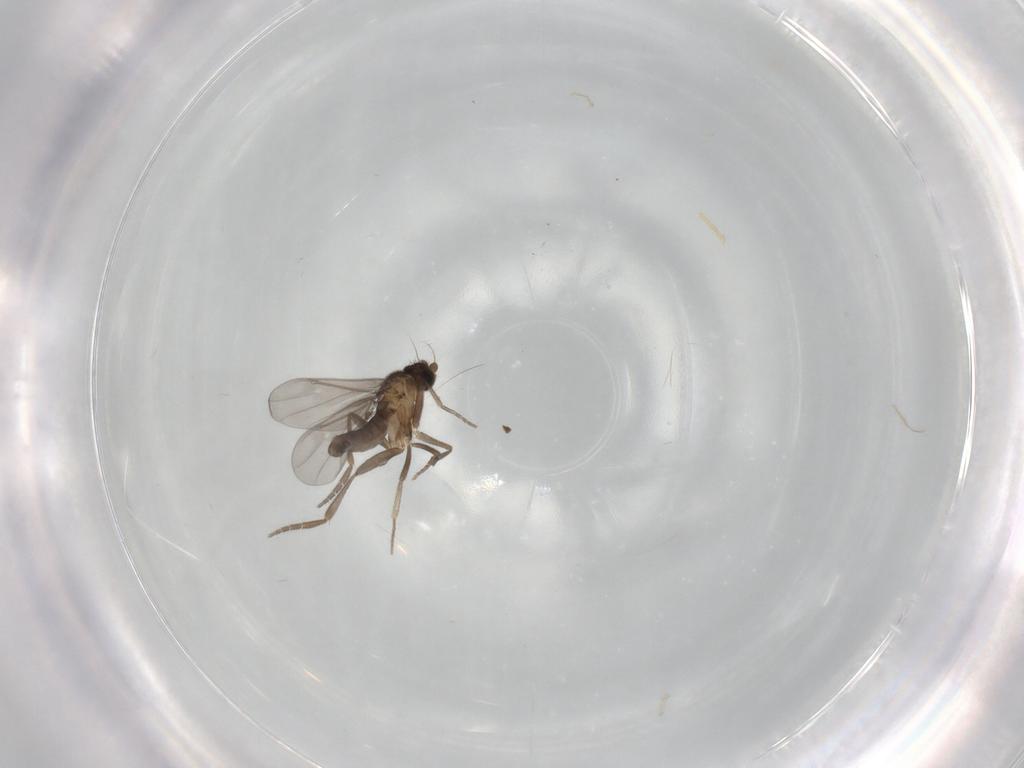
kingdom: Animalia
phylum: Arthropoda
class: Insecta
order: Diptera
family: Phoridae
